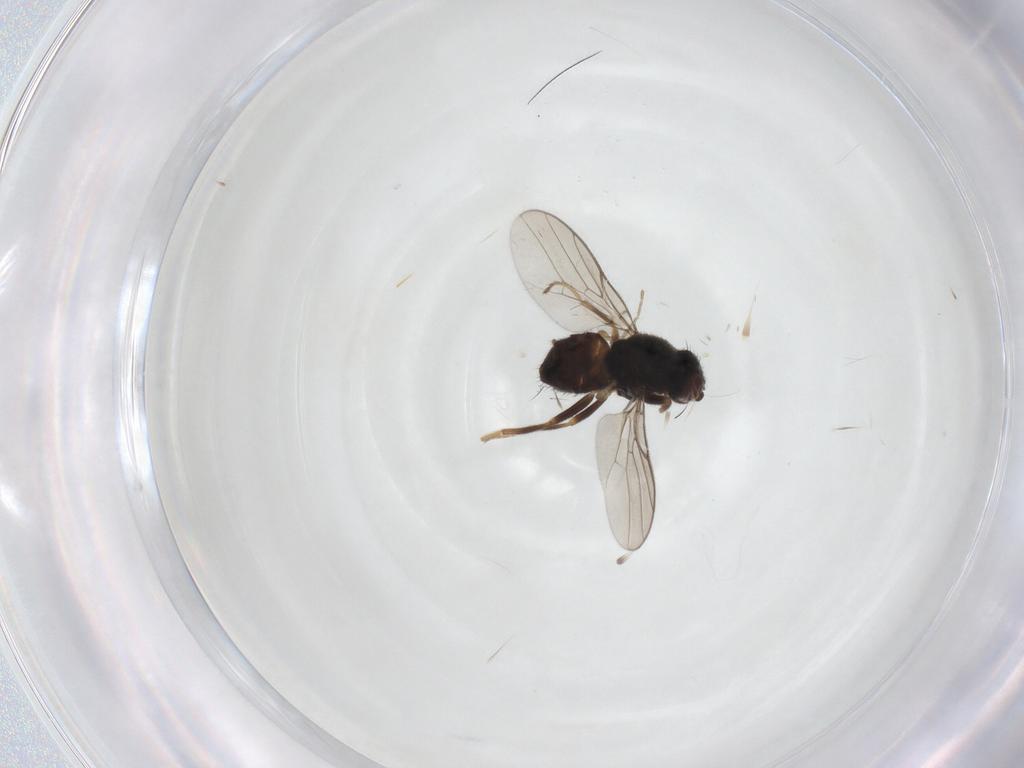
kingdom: Animalia
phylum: Arthropoda
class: Insecta
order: Diptera
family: Chloropidae
